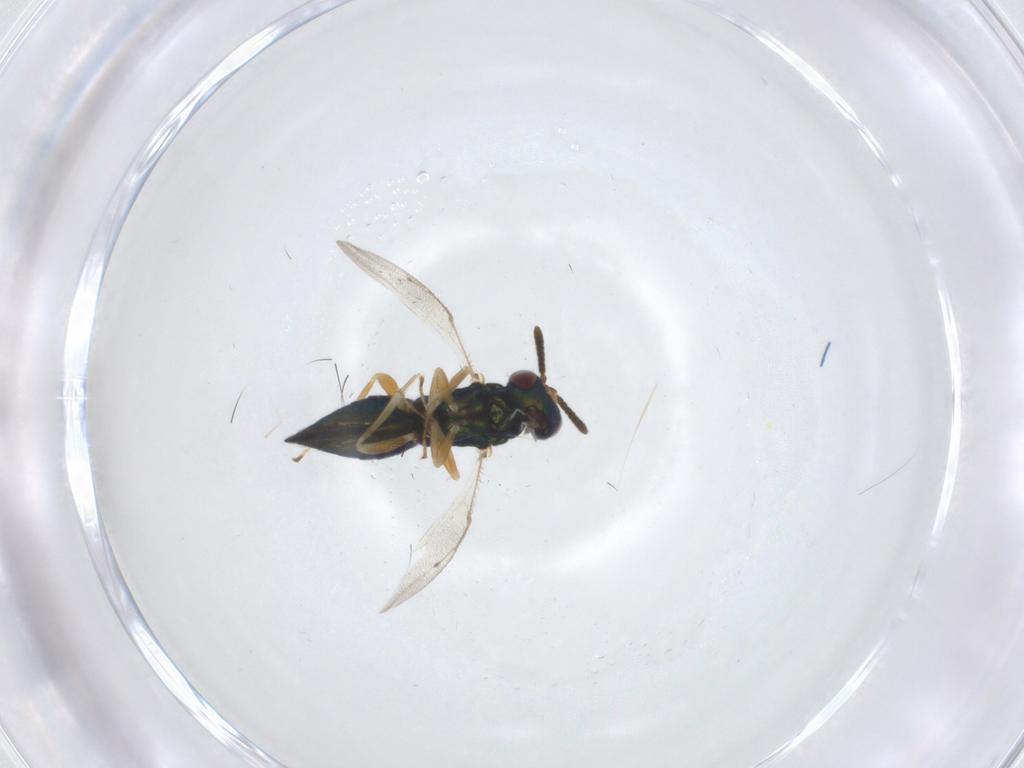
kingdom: Animalia
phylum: Arthropoda
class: Insecta
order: Hymenoptera
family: Pteromalidae
